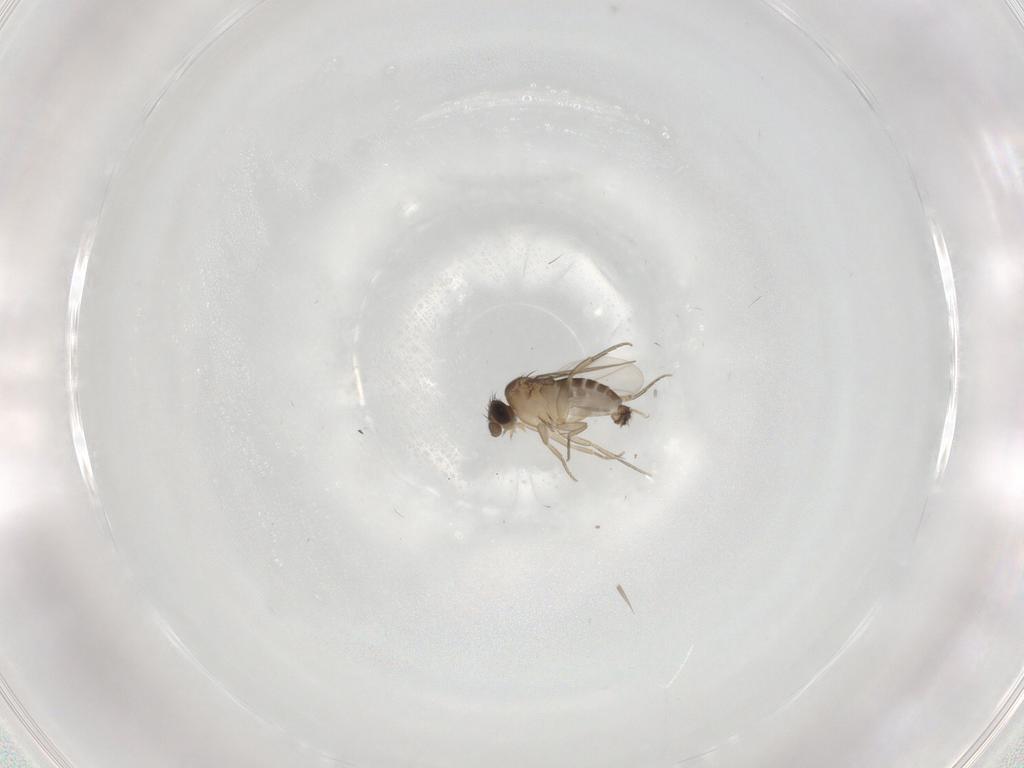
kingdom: Animalia
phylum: Arthropoda
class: Insecta
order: Diptera
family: Phoridae
